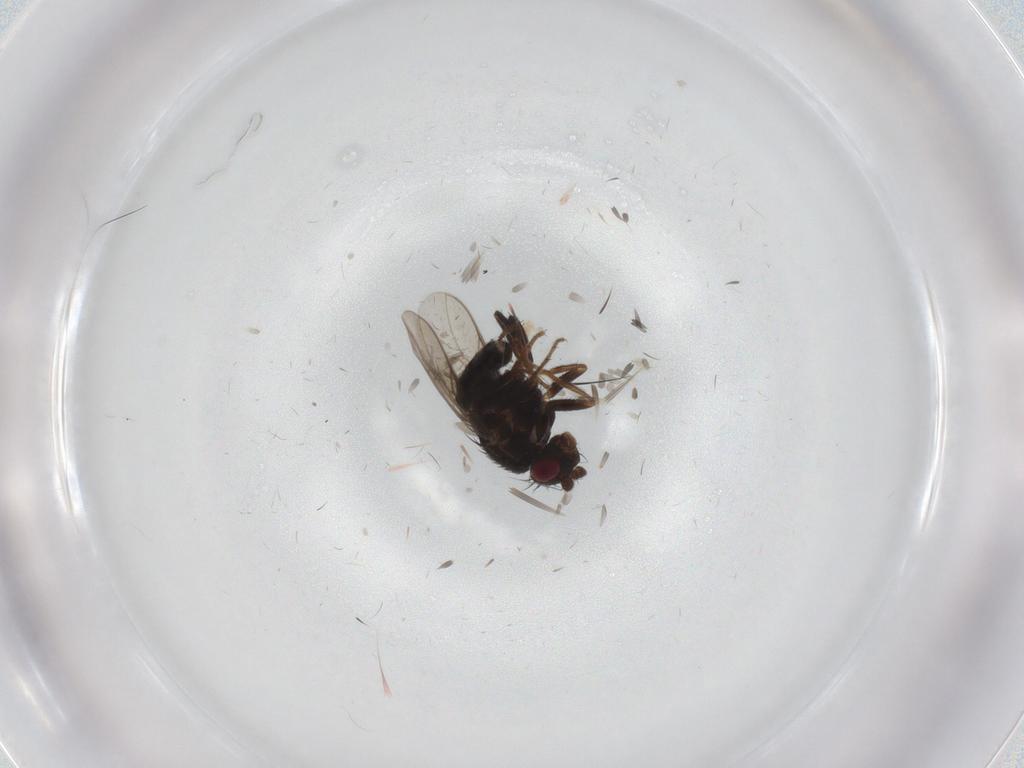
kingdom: Animalia
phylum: Arthropoda
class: Insecta
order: Diptera
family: Sphaeroceridae
